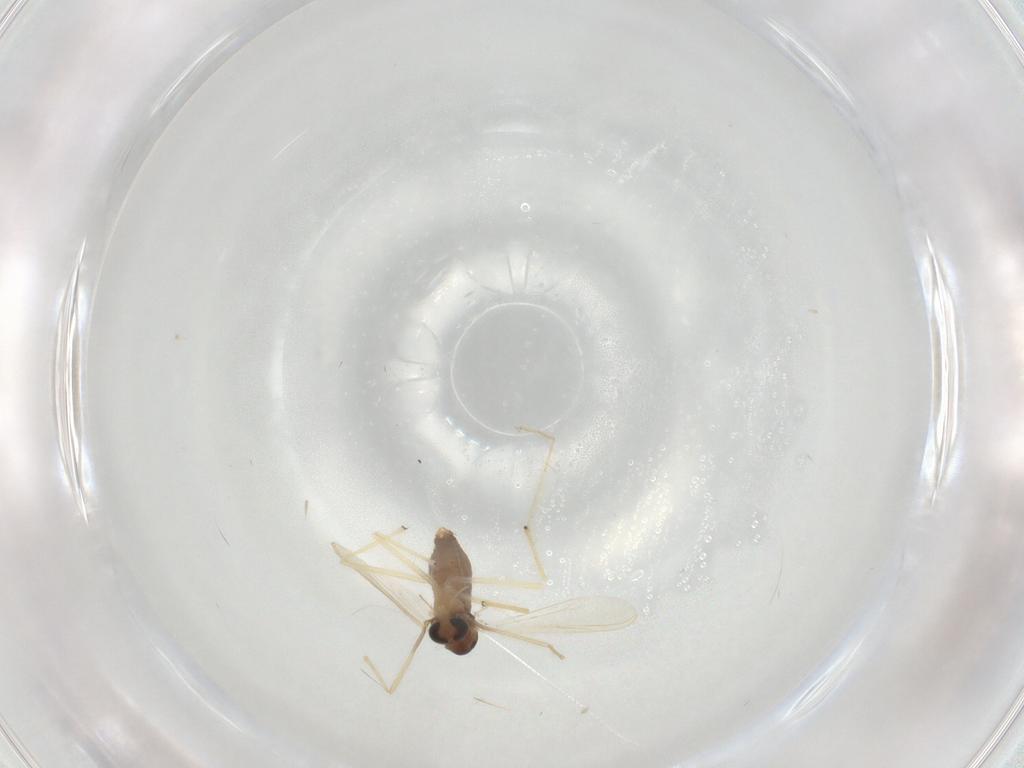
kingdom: Animalia
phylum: Arthropoda
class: Insecta
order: Diptera
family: Chironomidae
